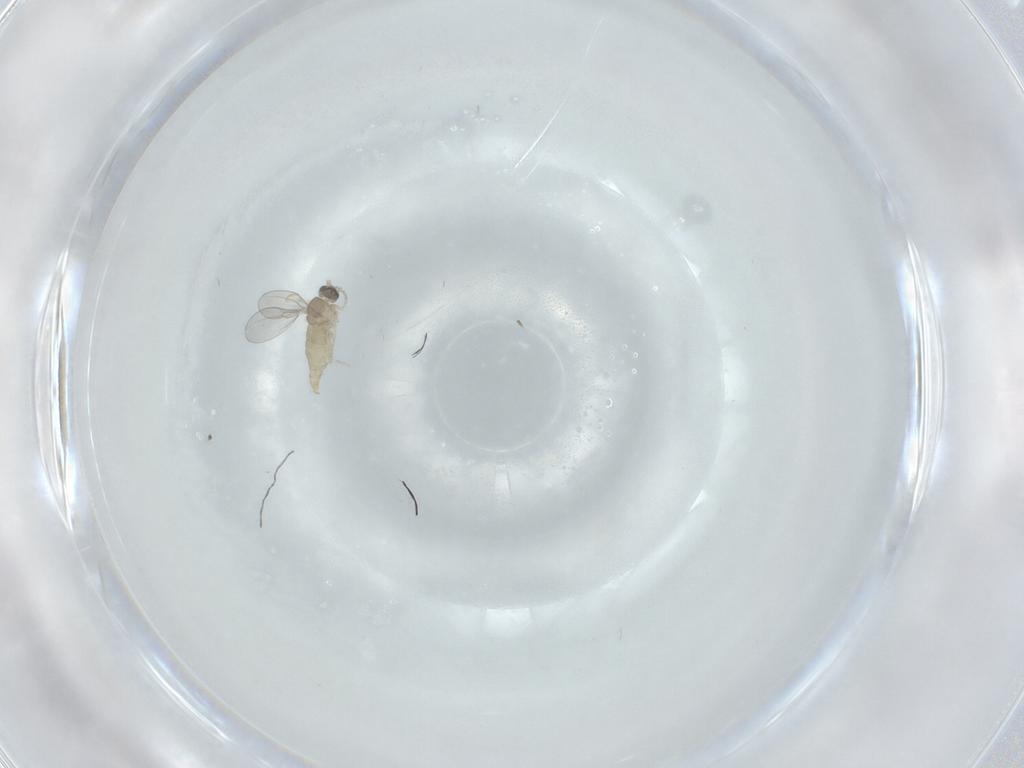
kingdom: Animalia
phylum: Arthropoda
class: Insecta
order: Diptera
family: Cecidomyiidae
